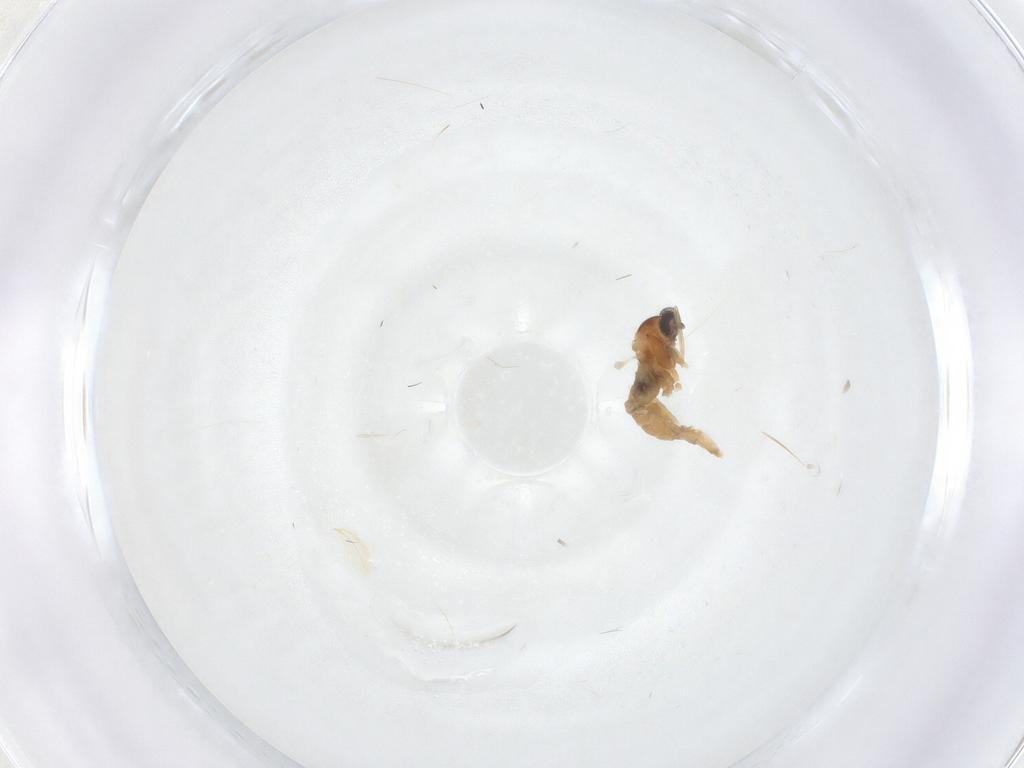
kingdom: Animalia
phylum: Arthropoda
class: Insecta
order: Diptera
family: Cecidomyiidae
